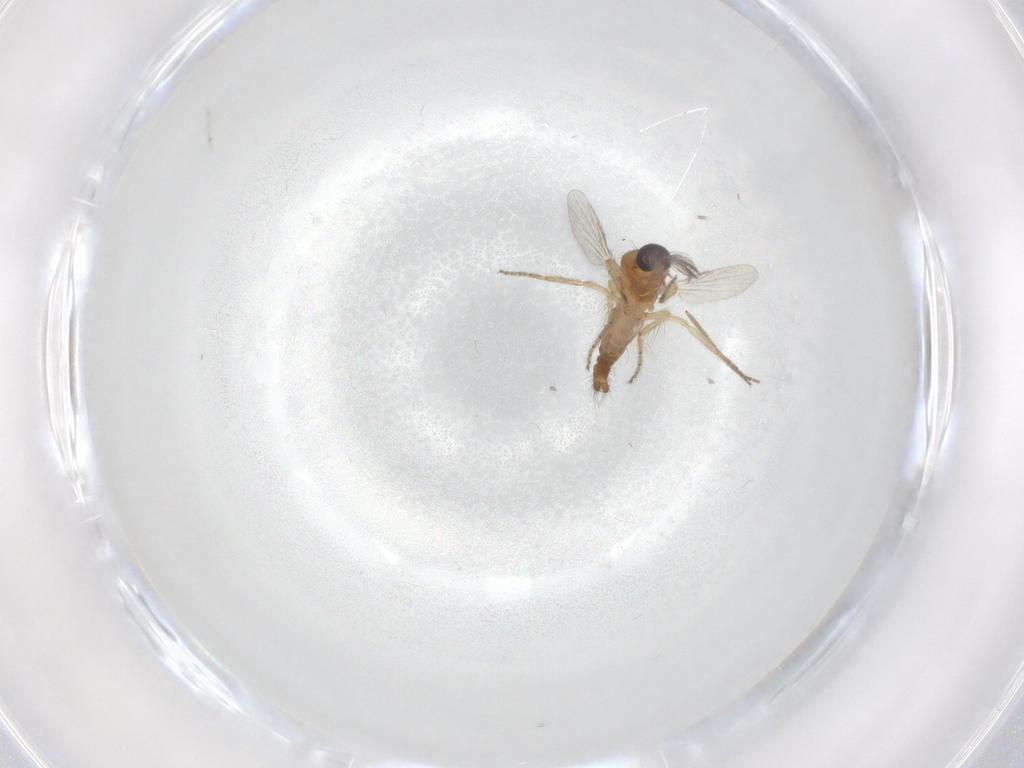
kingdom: Animalia
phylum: Arthropoda
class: Insecta
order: Diptera
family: Ceratopogonidae
